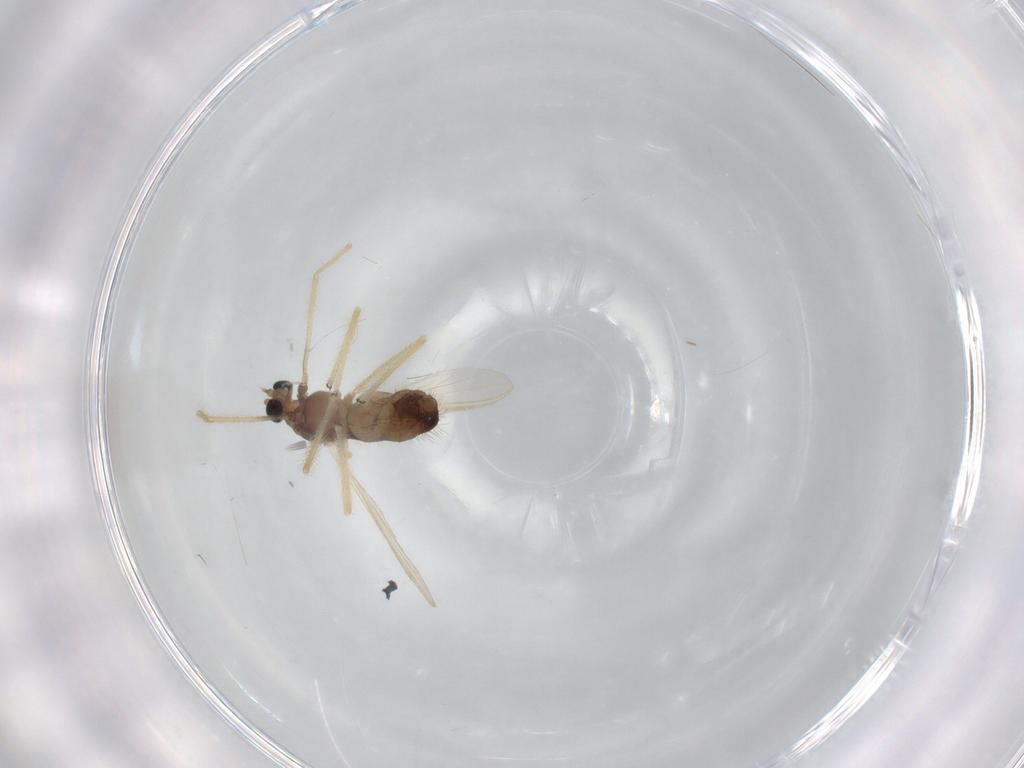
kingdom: Animalia
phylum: Arthropoda
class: Insecta
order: Diptera
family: Chironomidae
